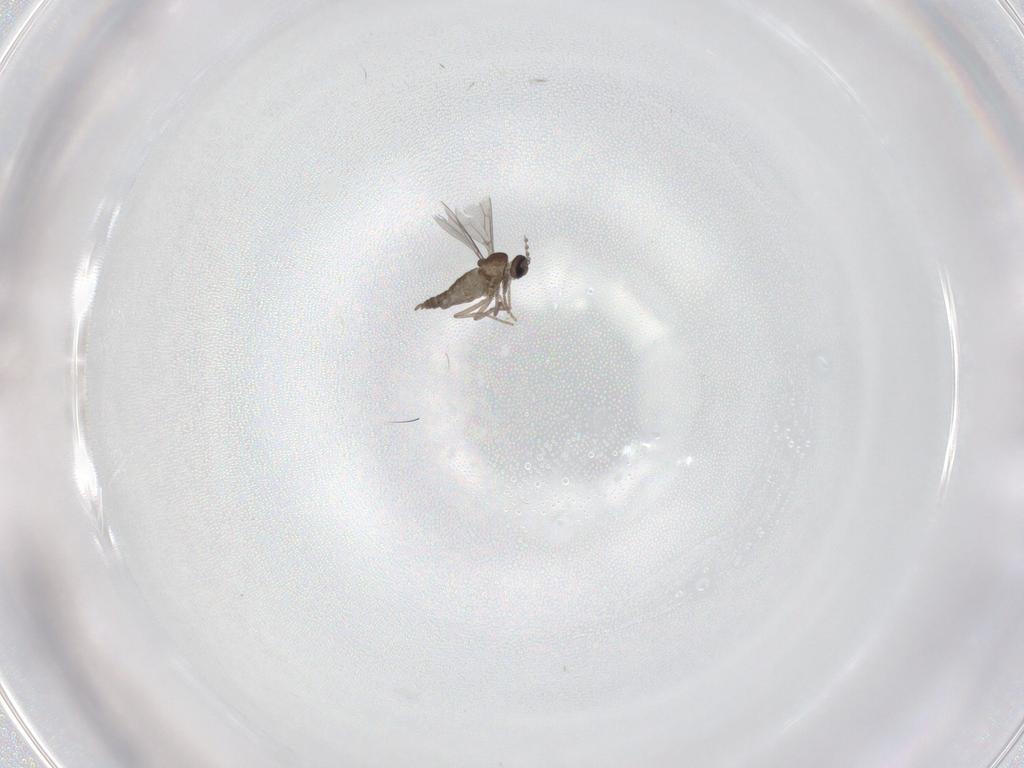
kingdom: Animalia
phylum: Arthropoda
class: Insecta
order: Diptera
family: Cecidomyiidae
